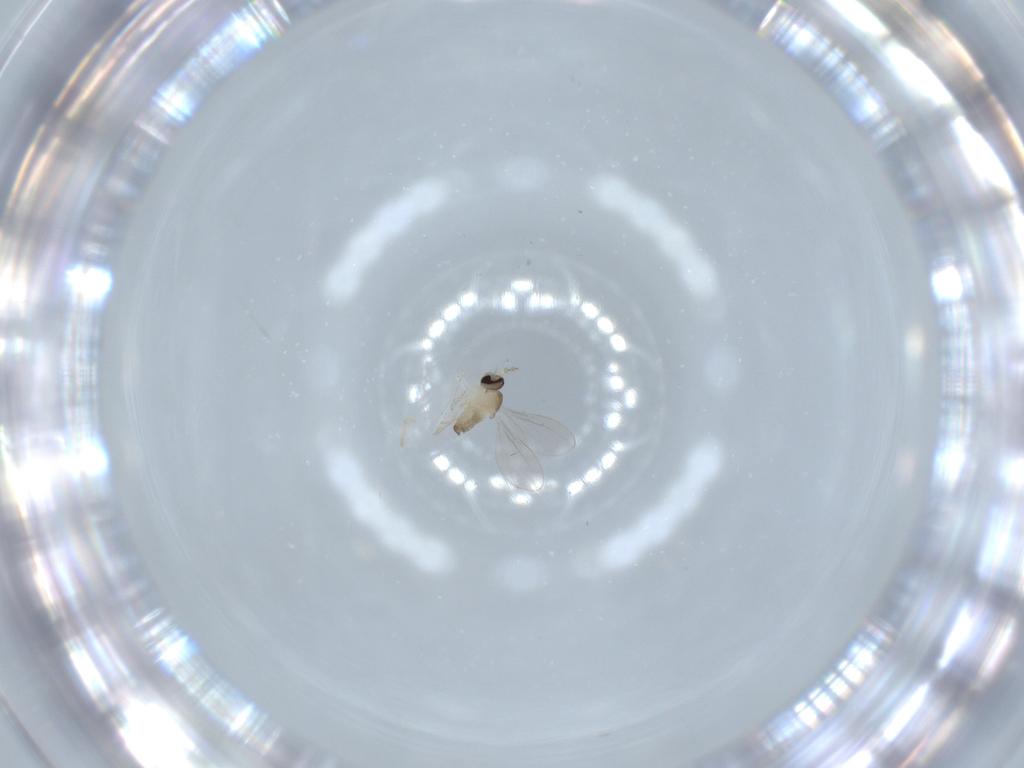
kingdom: Animalia
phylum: Arthropoda
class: Insecta
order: Diptera
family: Cecidomyiidae
